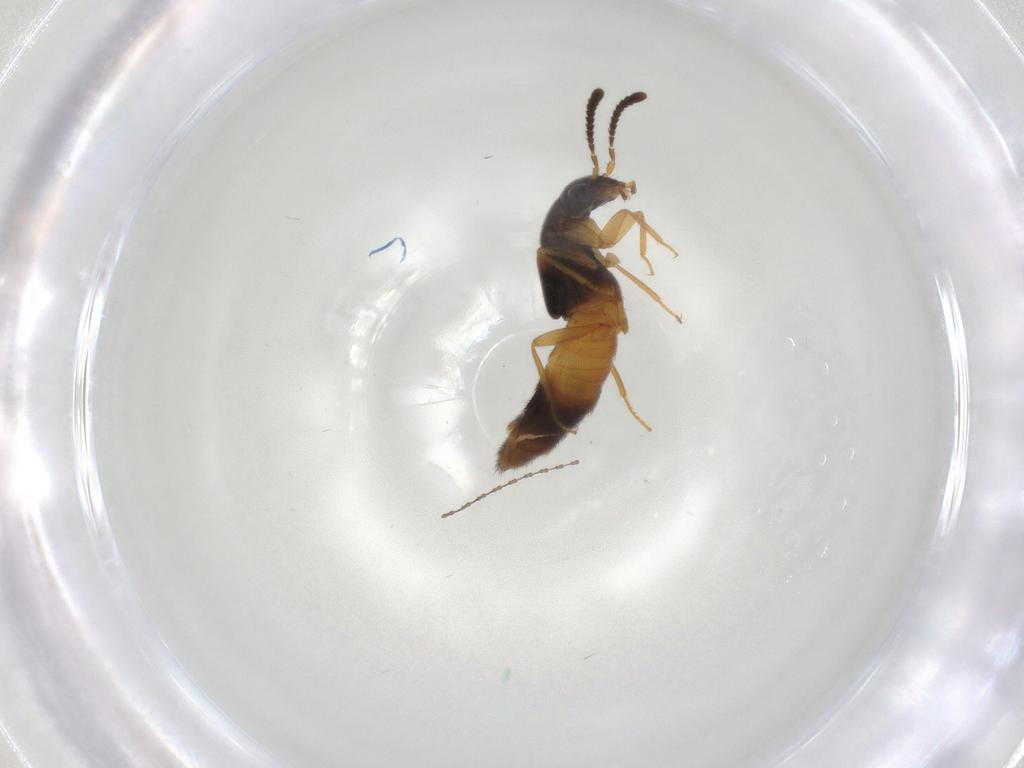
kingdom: Animalia
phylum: Arthropoda
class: Insecta
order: Coleoptera
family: Staphylinidae
